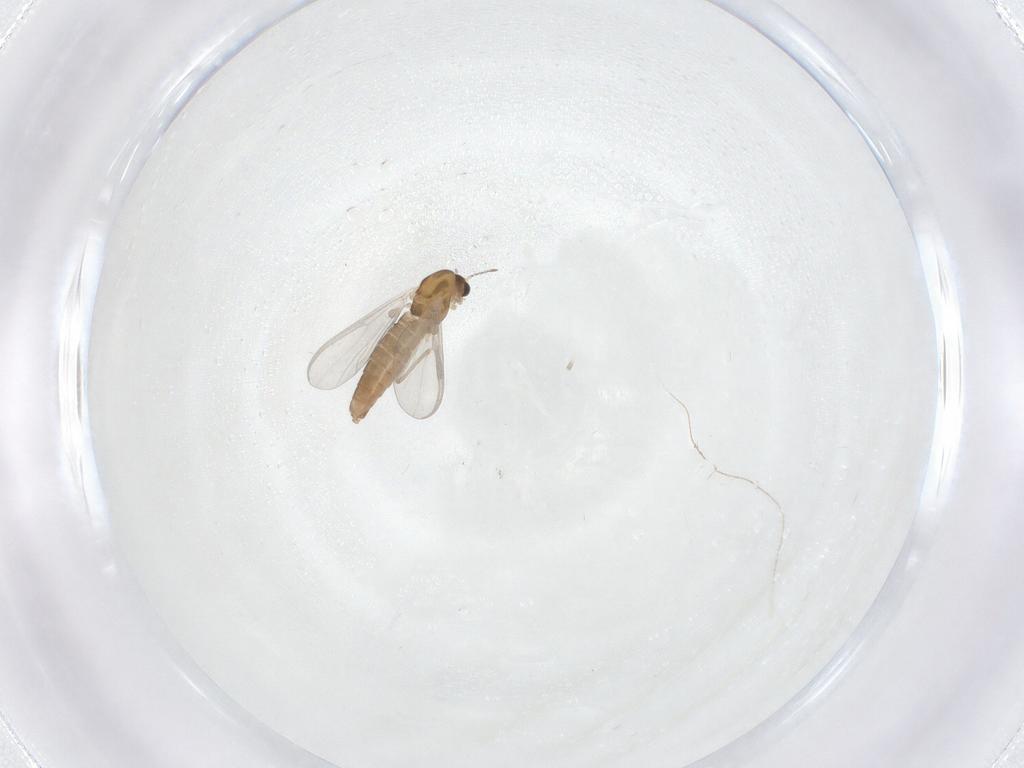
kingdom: Animalia
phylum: Arthropoda
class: Insecta
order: Diptera
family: Chironomidae
